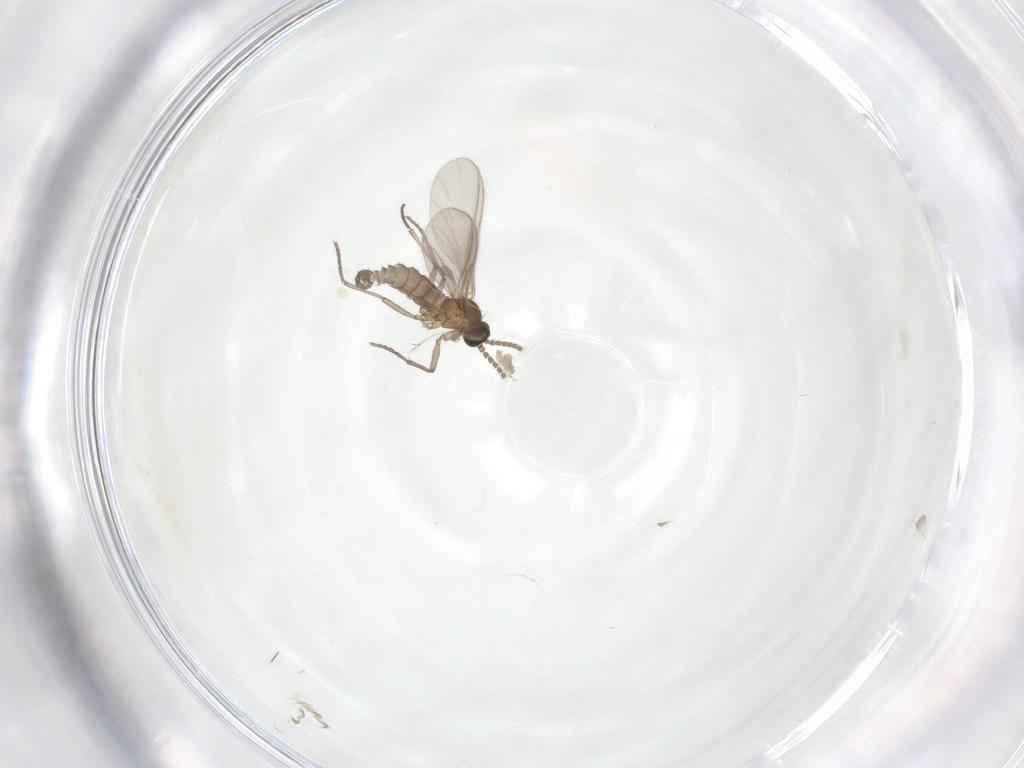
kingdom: Animalia
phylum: Arthropoda
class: Insecta
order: Diptera
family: Sciaridae
